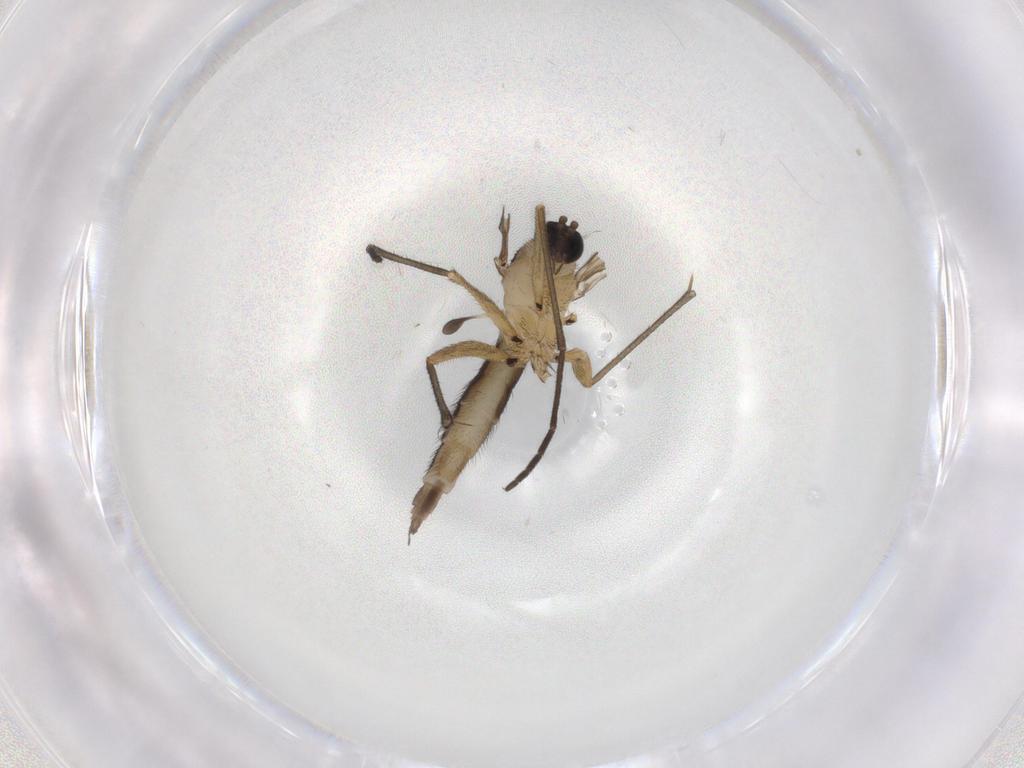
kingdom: Animalia
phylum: Arthropoda
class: Insecta
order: Diptera
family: Sciaridae
